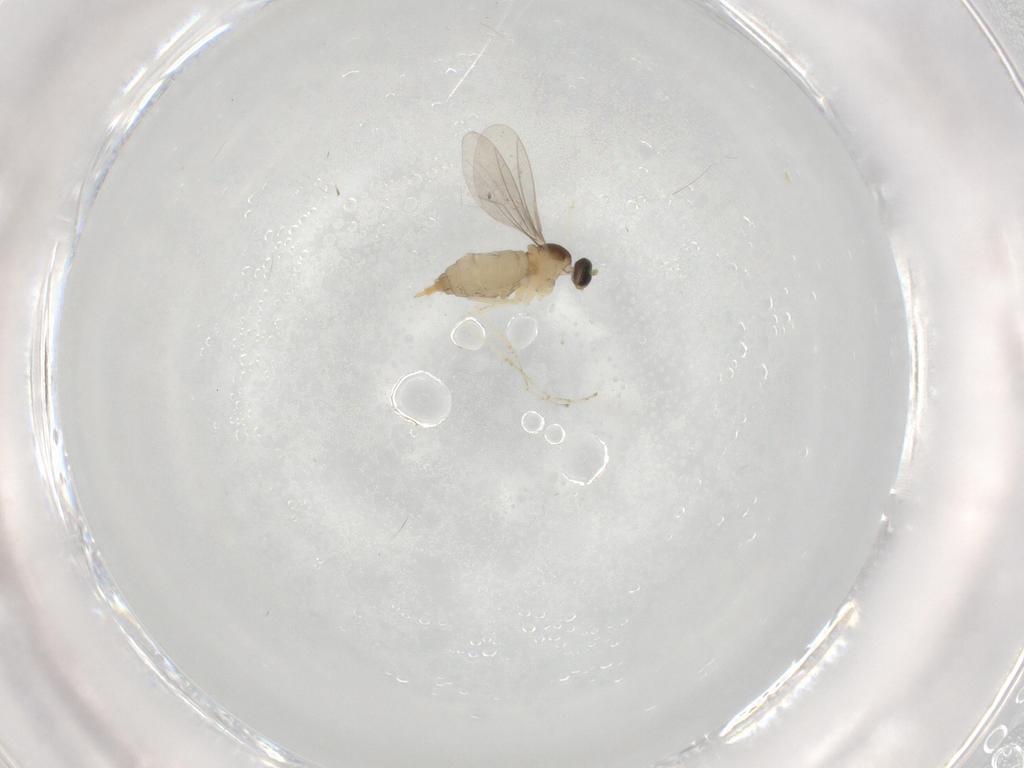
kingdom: Animalia
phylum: Arthropoda
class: Insecta
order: Diptera
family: Cecidomyiidae
